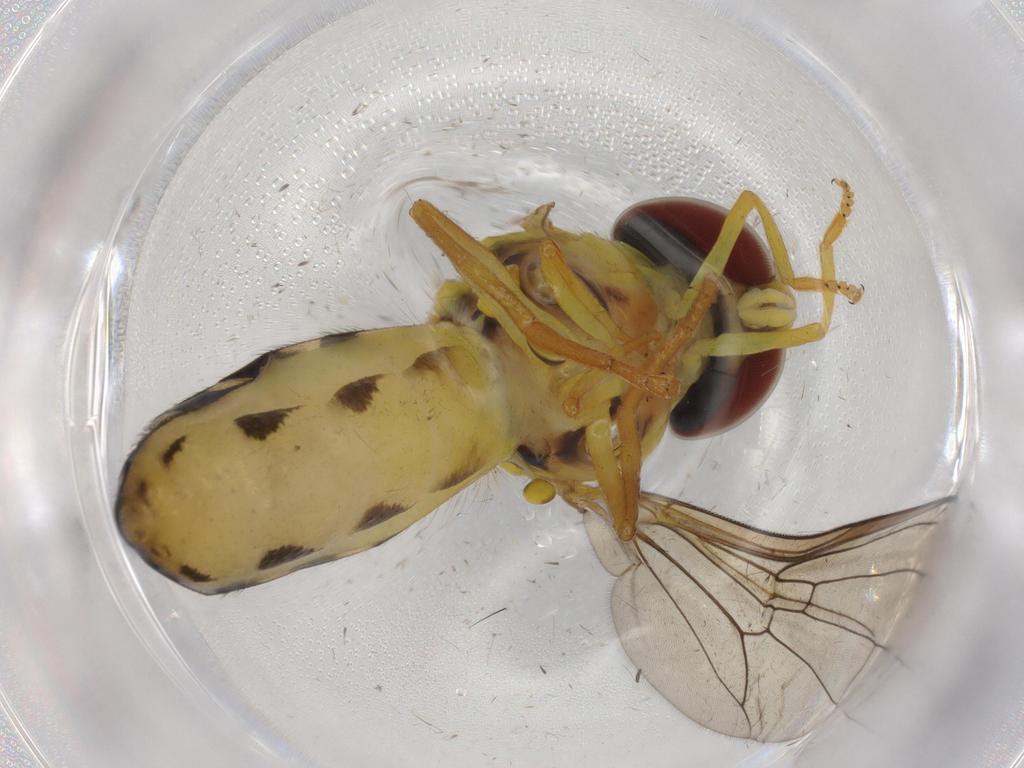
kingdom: Animalia
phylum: Arthropoda
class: Insecta
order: Diptera
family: Syrphidae
